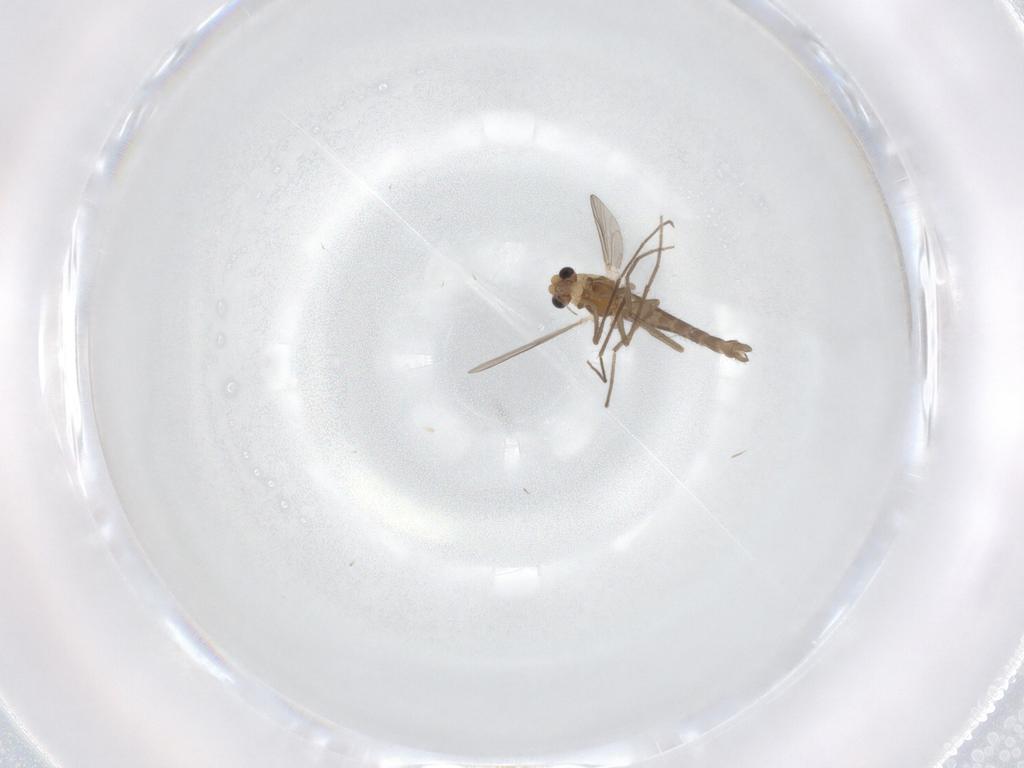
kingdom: Animalia
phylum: Arthropoda
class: Insecta
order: Diptera
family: Chironomidae
